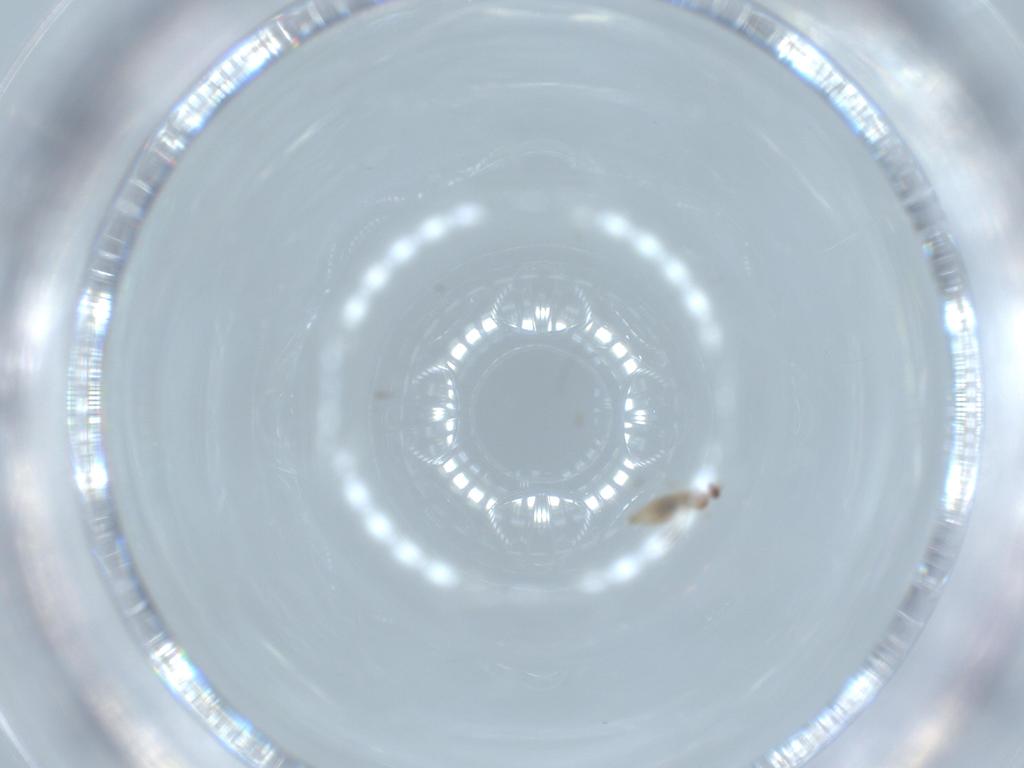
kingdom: Animalia
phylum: Arthropoda
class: Insecta
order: Diptera
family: Cecidomyiidae
